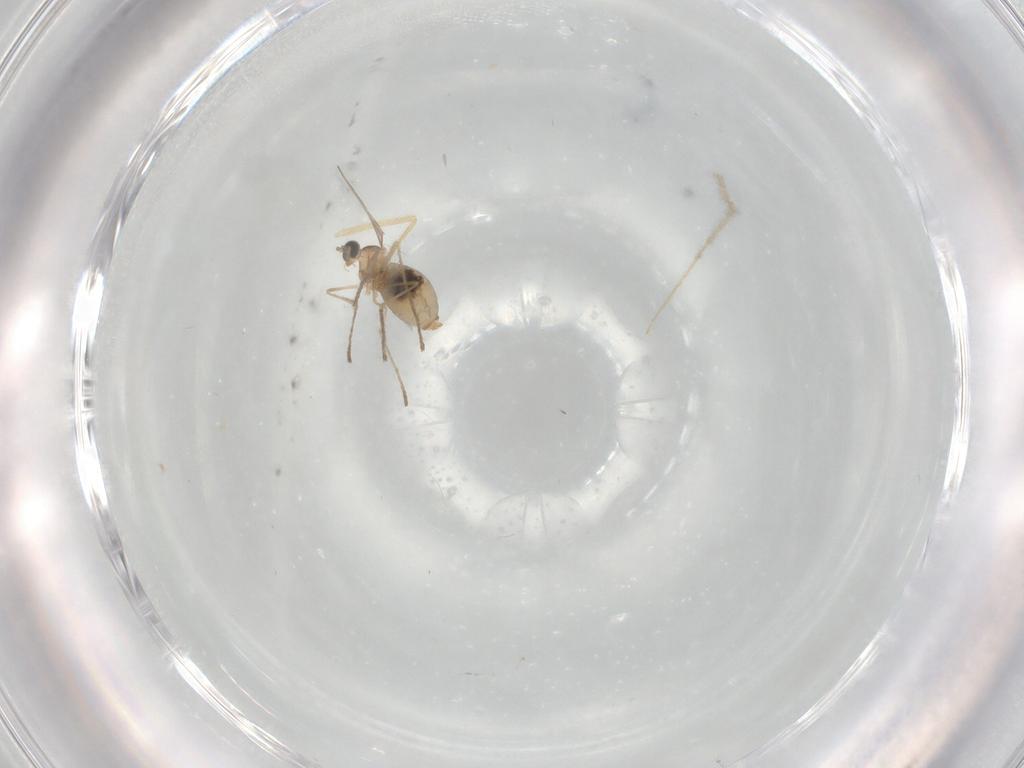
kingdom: Animalia
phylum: Arthropoda
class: Insecta
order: Diptera
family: Cecidomyiidae
